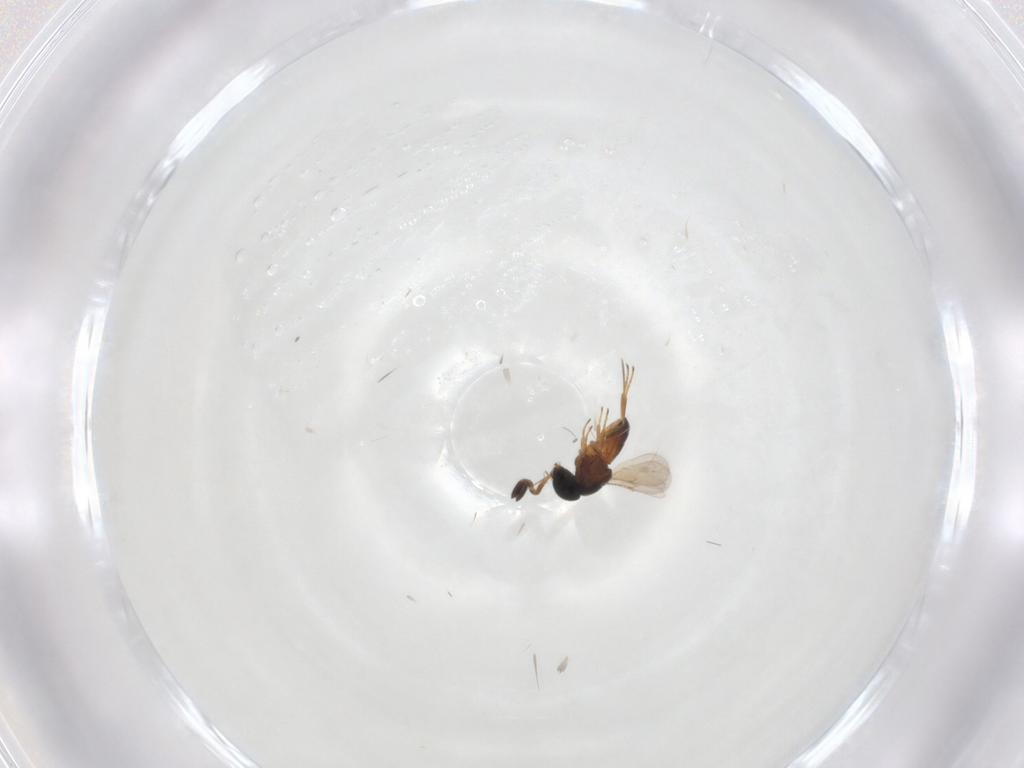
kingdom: Animalia
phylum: Arthropoda
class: Insecta
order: Hymenoptera
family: Scelionidae
